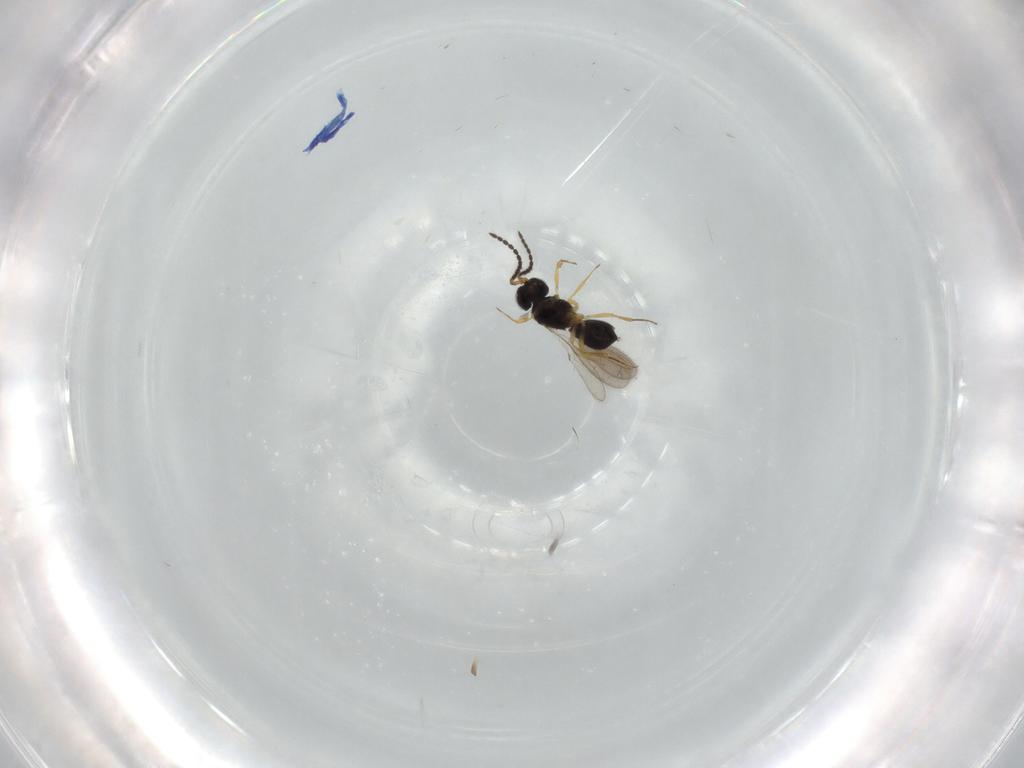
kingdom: Animalia
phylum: Arthropoda
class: Insecta
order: Hymenoptera
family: Scelionidae
